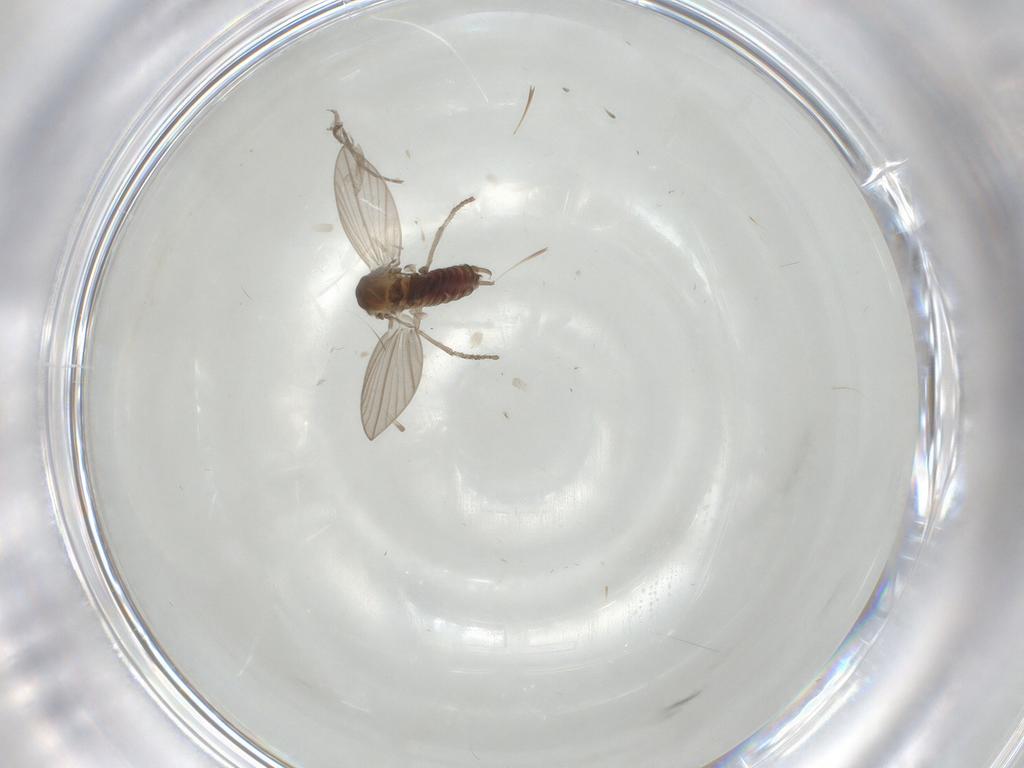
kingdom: Animalia
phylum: Arthropoda
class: Insecta
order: Diptera
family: Psychodidae
